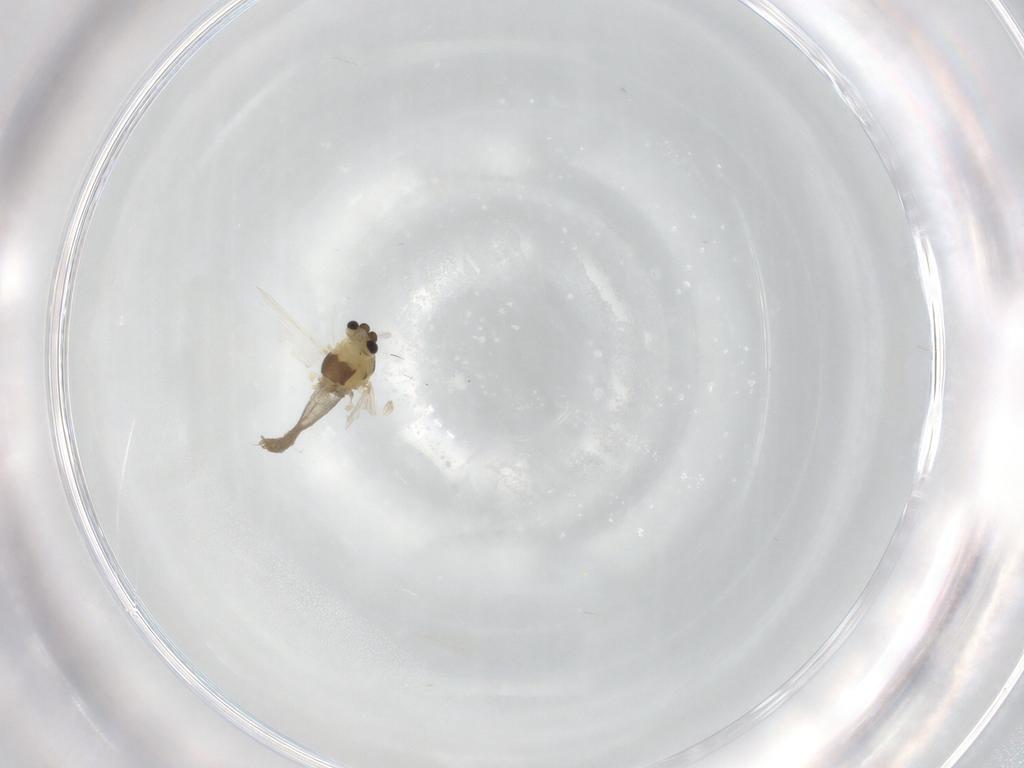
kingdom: Animalia
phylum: Arthropoda
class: Insecta
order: Diptera
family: Chironomidae
